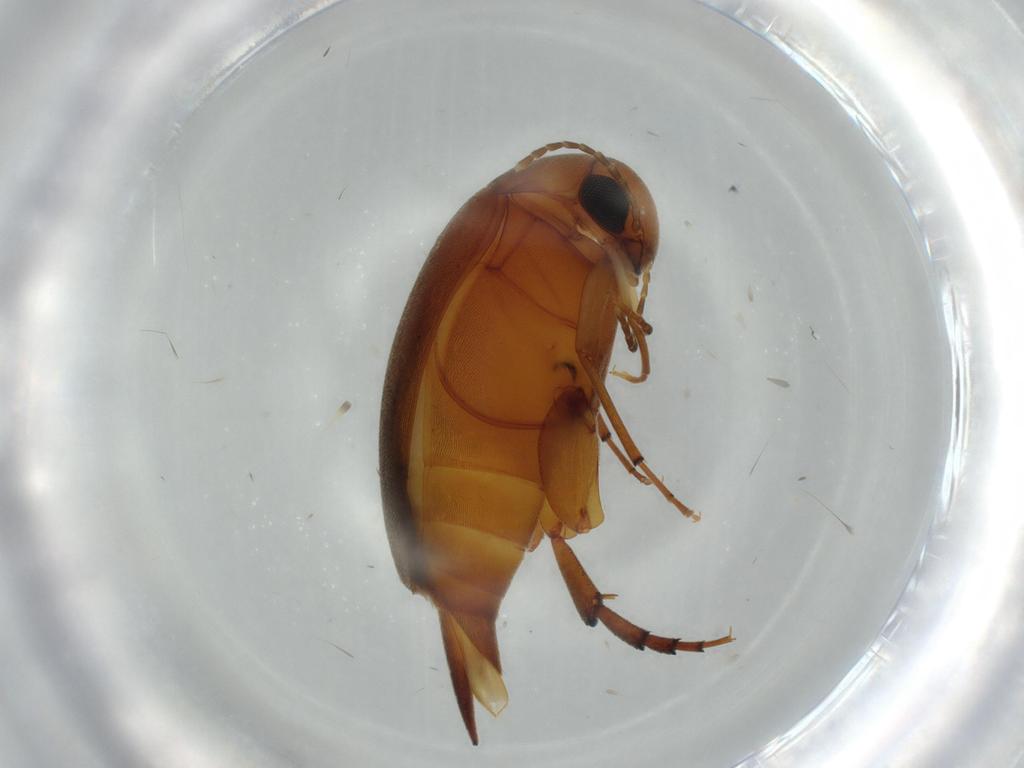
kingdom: Animalia
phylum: Arthropoda
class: Insecta
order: Coleoptera
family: Mordellidae
